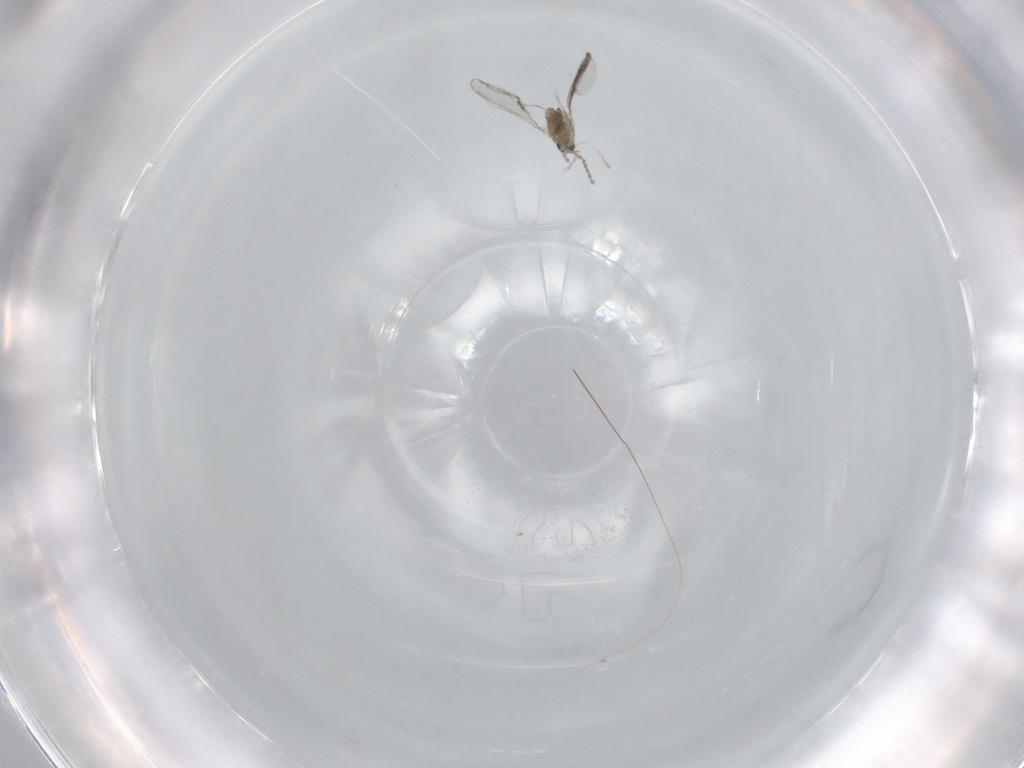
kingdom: Animalia
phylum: Arthropoda
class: Insecta
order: Diptera
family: Cecidomyiidae
